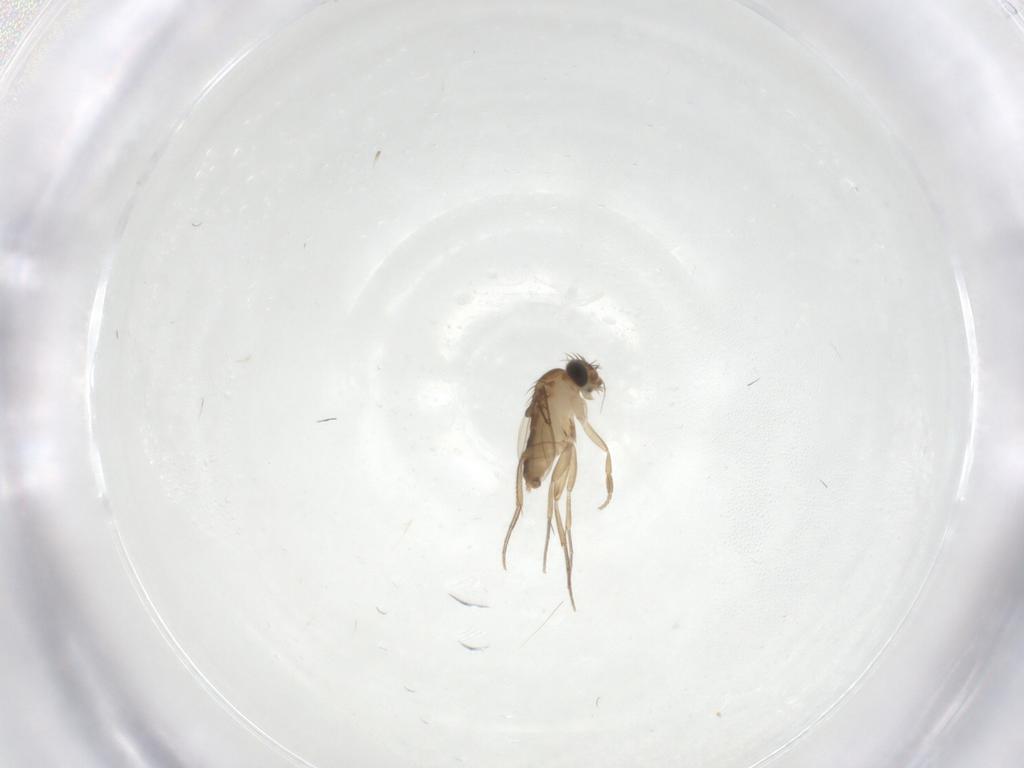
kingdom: Animalia
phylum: Arthropoda
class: Insecta
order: Diptera
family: Phoridae
